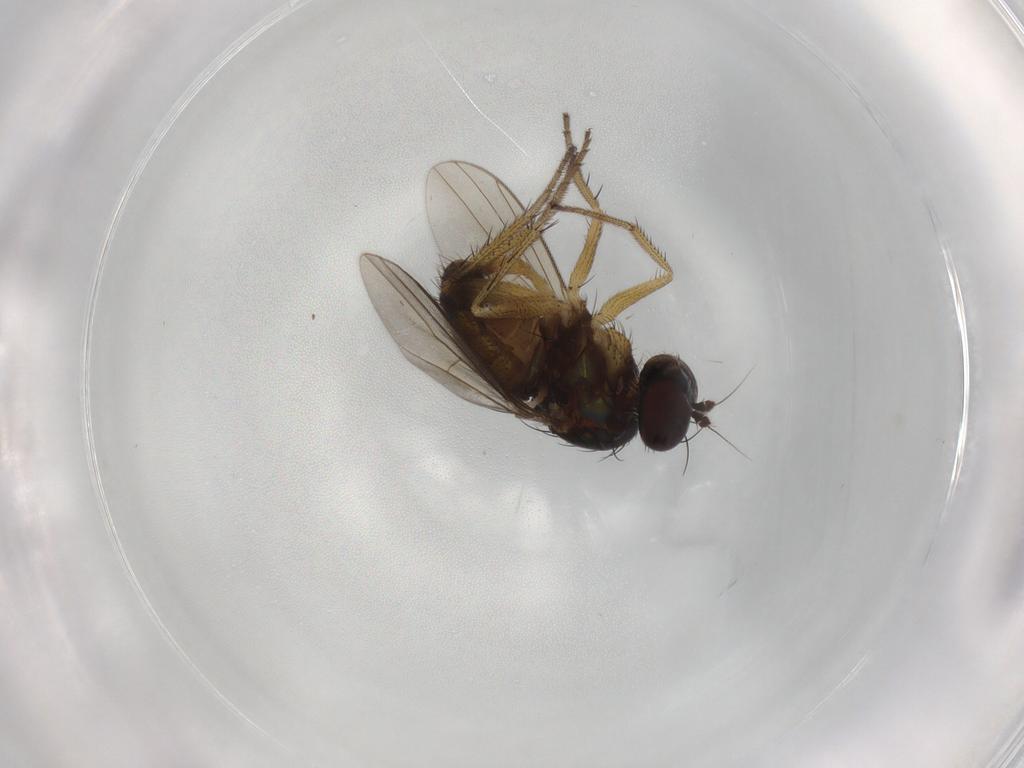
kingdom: Animalia
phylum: Arthropoda
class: Insecta
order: Diptera
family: Dolichopodidae
